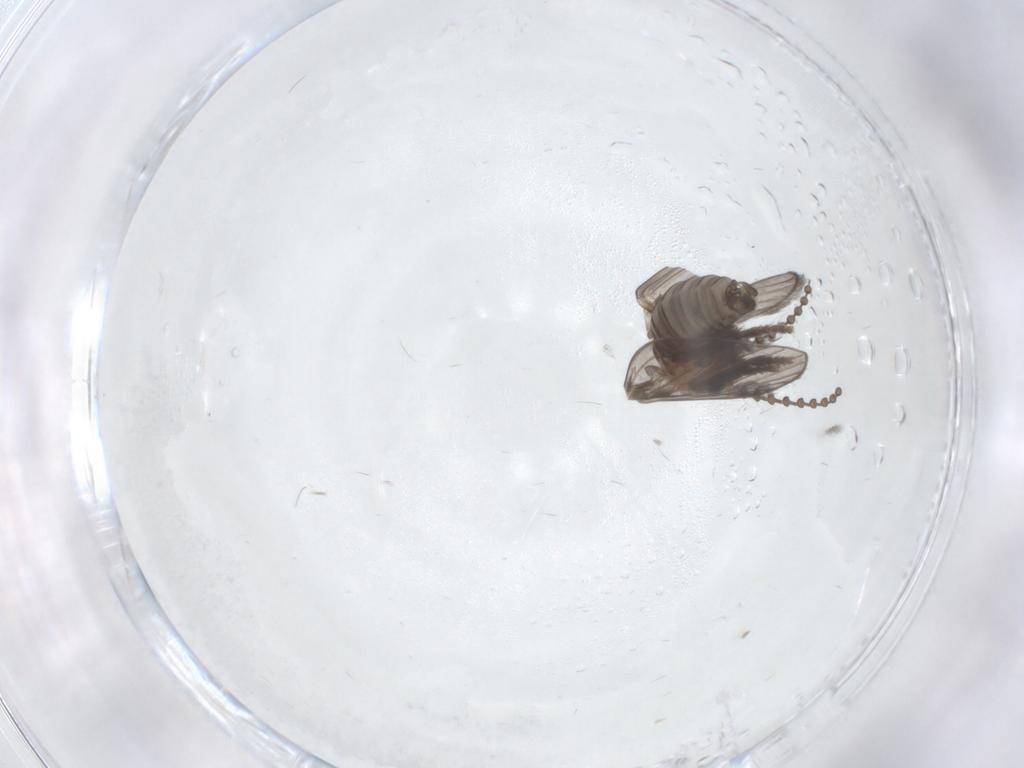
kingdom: Animalia
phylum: Arthropoda
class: Insecta
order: Diptera
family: Psychodidae
